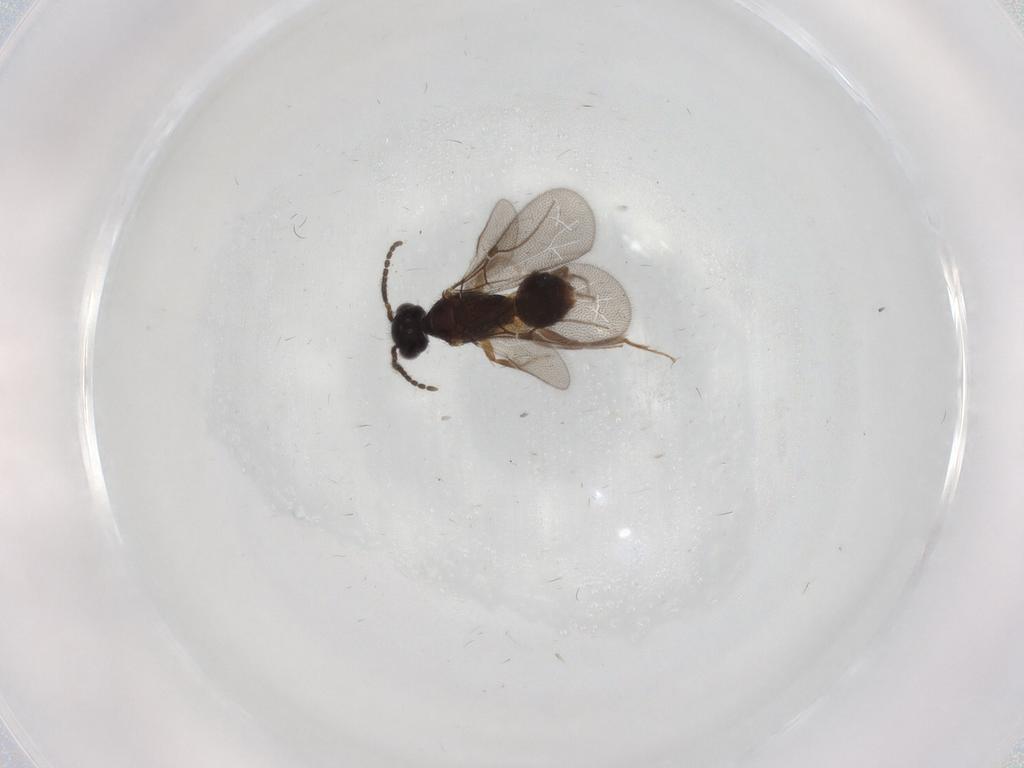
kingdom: Animalia
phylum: Arthropoda
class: Insecta
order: Hymenoptera
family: Bethylidae
